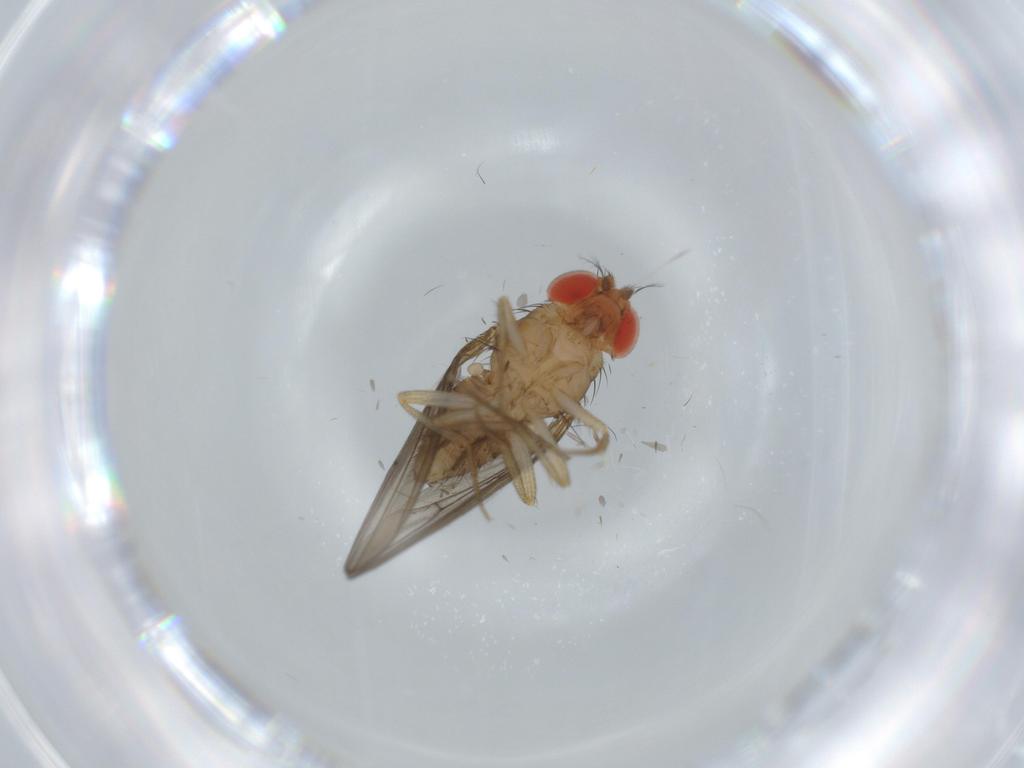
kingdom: Animalia
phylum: Arthropoda
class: Insecta
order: Diptera
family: Drosophilidae
